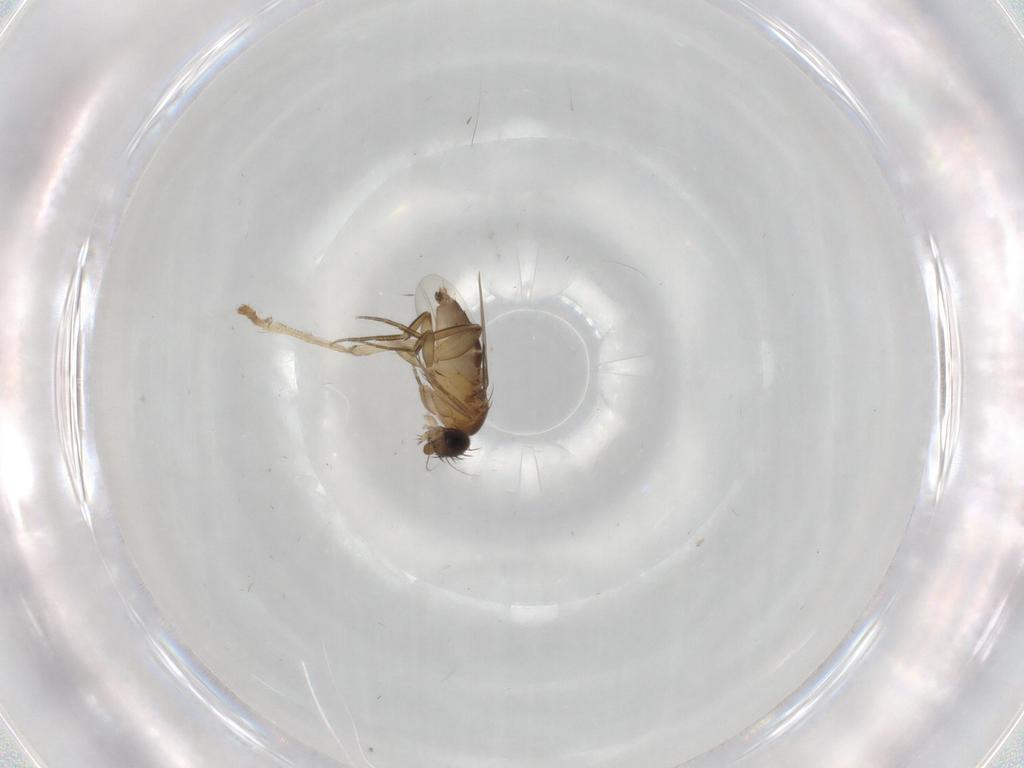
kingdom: Animalia
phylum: Arthropoda
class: Insecta
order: Diptera
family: Phoridae
